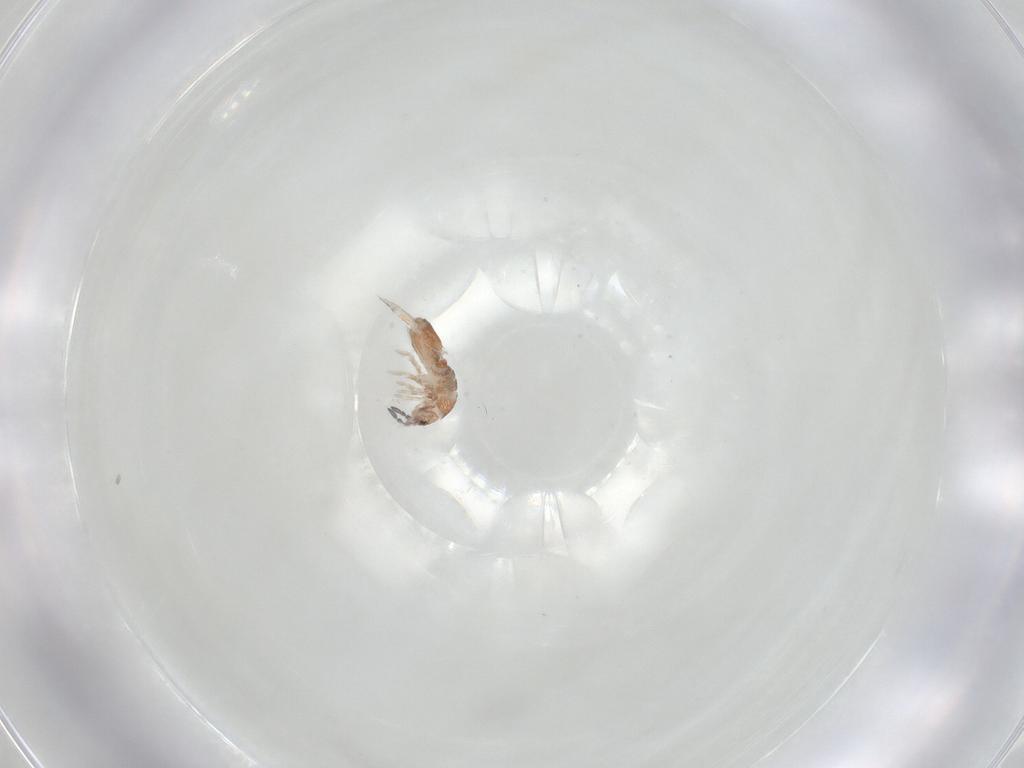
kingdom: Animalia
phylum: Arthropoda
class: Collembola
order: Entomobryomorpha
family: Entomobryidae
